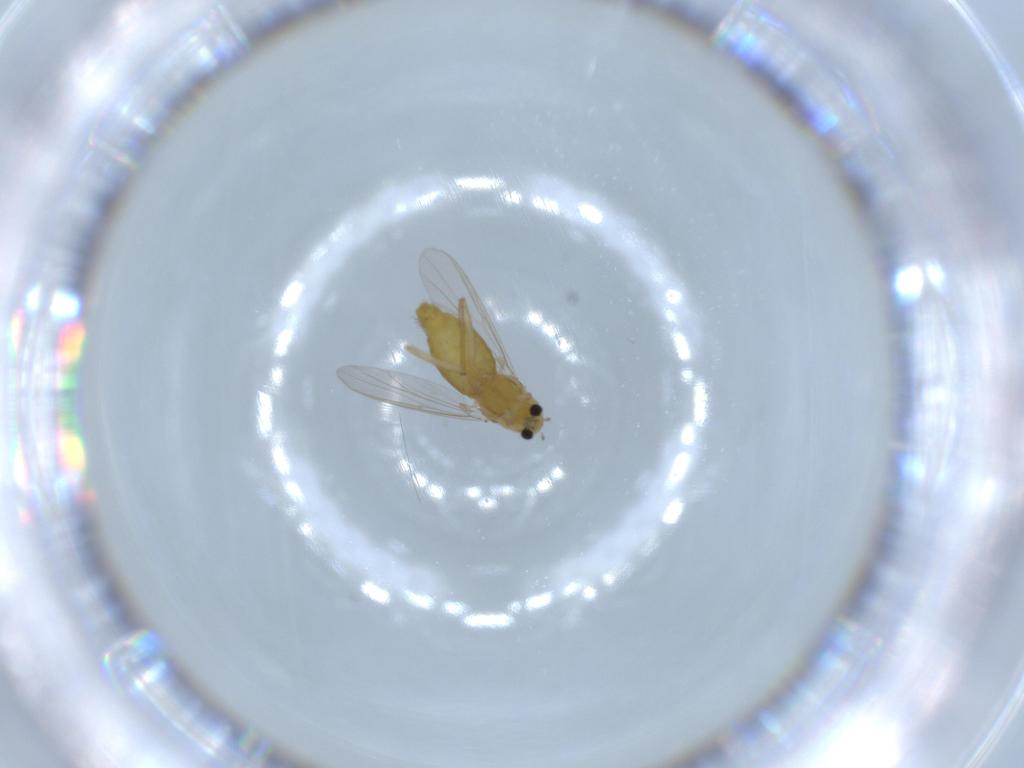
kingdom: Animalia
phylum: Arthropoda
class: Insecta
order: Diptera
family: Chironomidae
